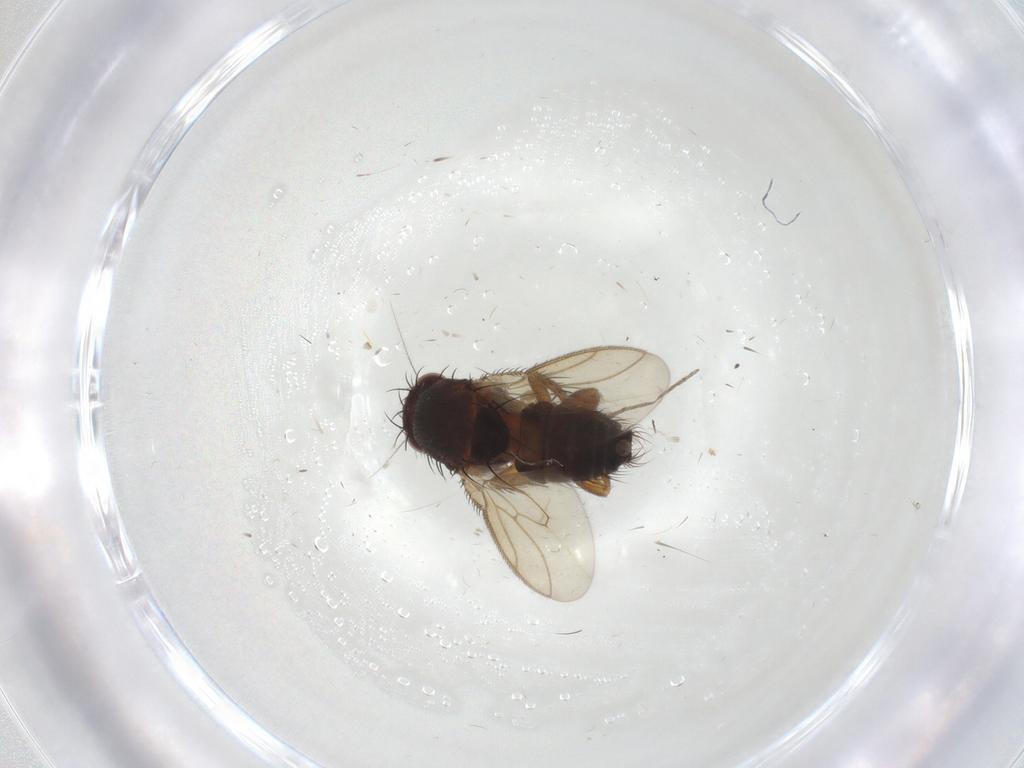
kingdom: Animalia
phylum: Arthropoda
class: Insecta
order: Diptera
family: Sphaeroceridae
